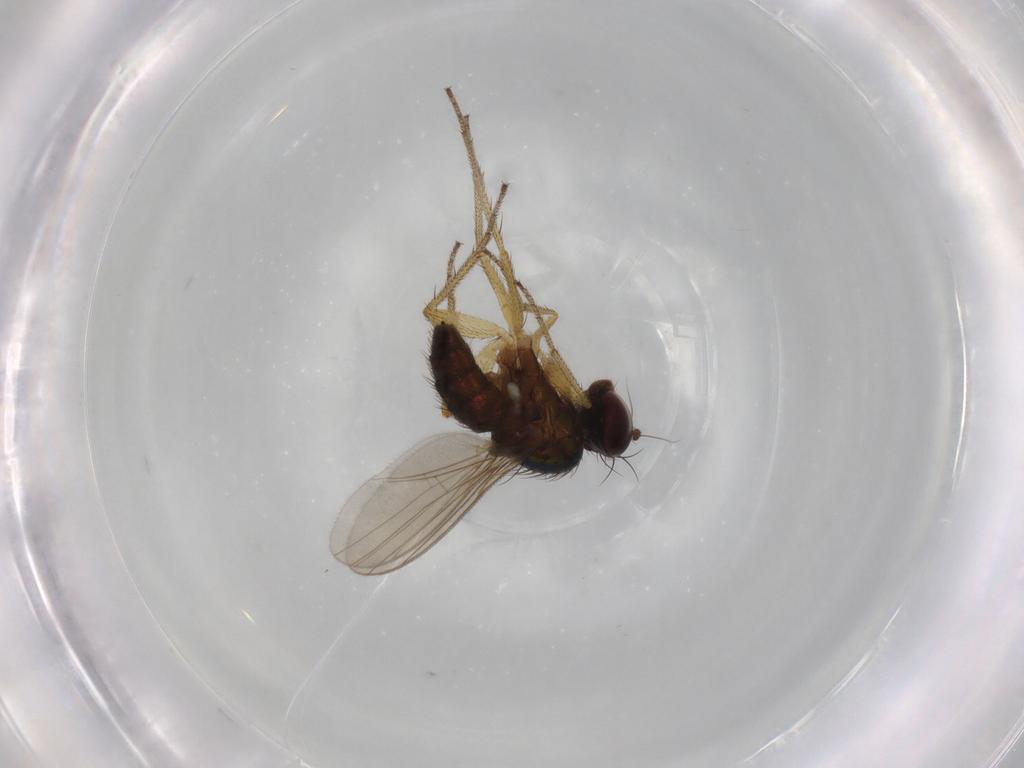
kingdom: Animalia
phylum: Arthropoda
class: Insecta
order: Diptera
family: Dolichopodidae
